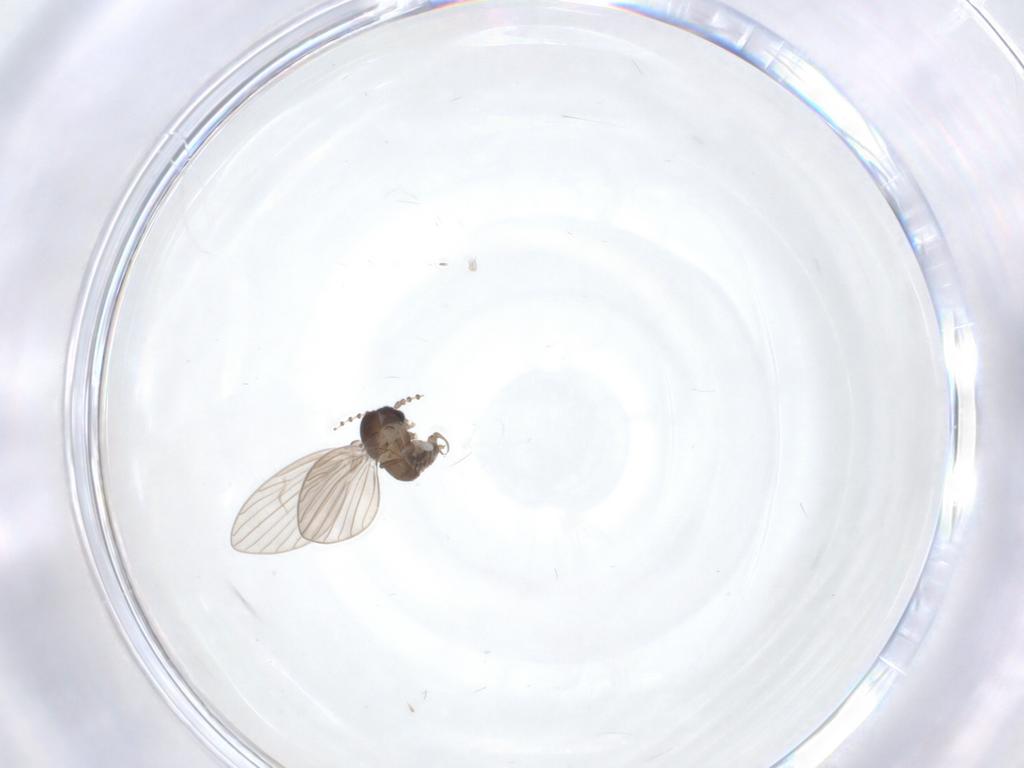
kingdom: Animalia
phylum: Arthropoda
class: Insecta
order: Diptera
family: Psychodidae
